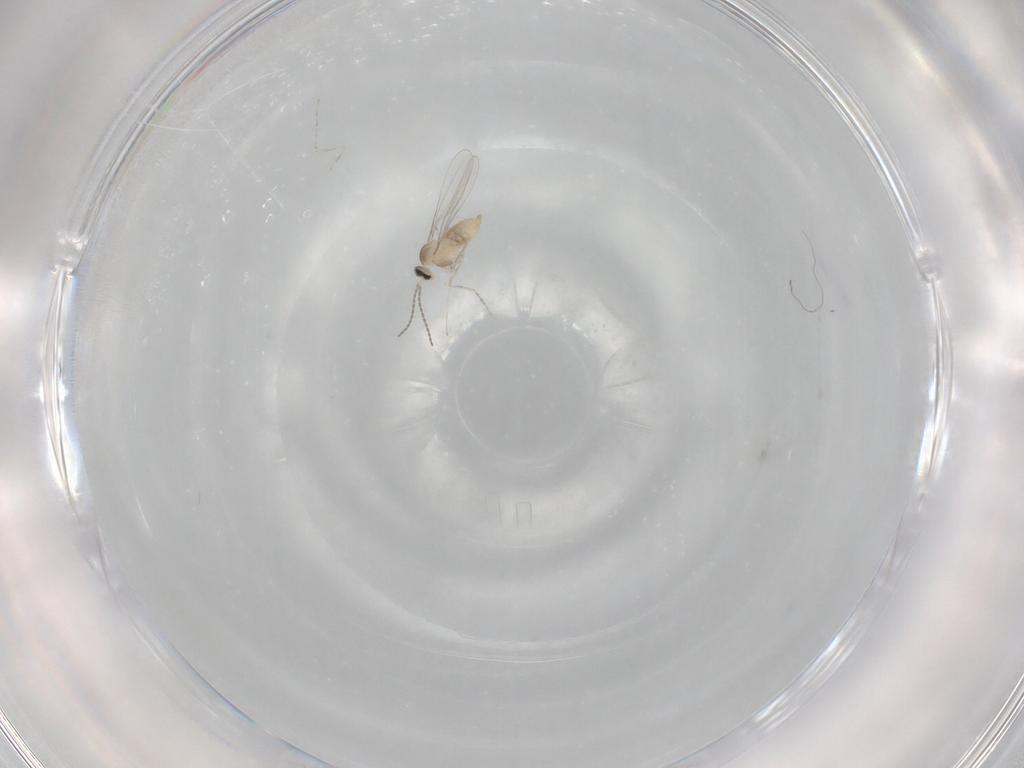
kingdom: Animalia
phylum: Arthropoda
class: Insecta
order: Diptera
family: Cecidomyiidae
